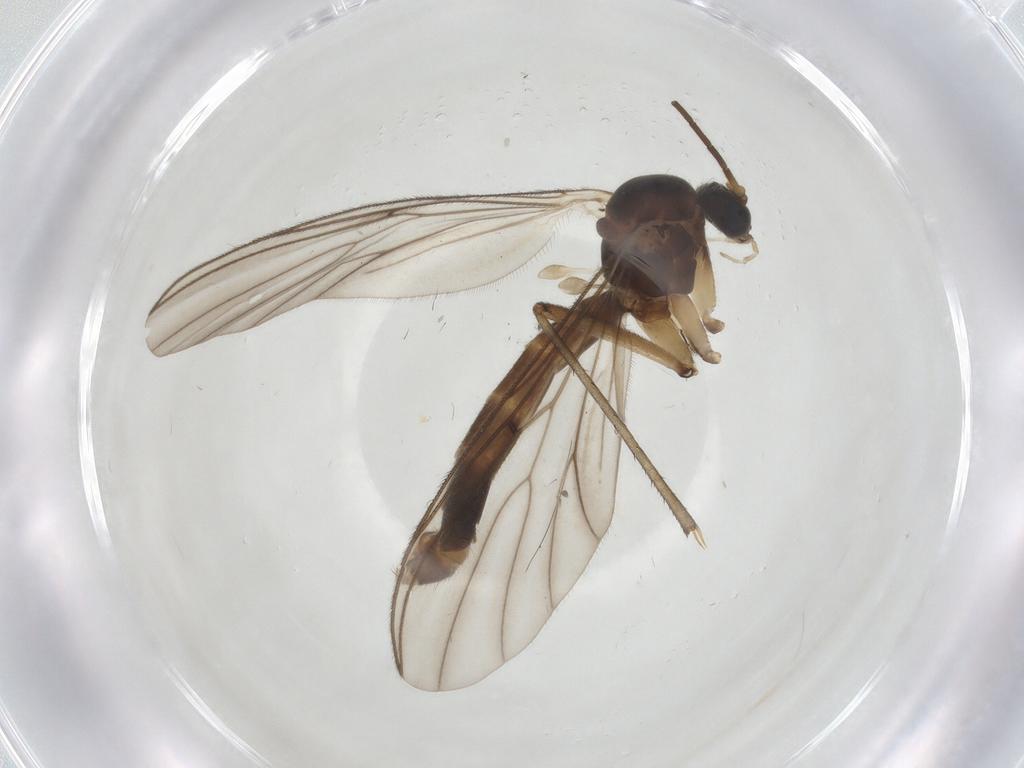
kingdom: Animalia
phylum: Arthropoda
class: Insecta
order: Diptera
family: Mycetophilidae
